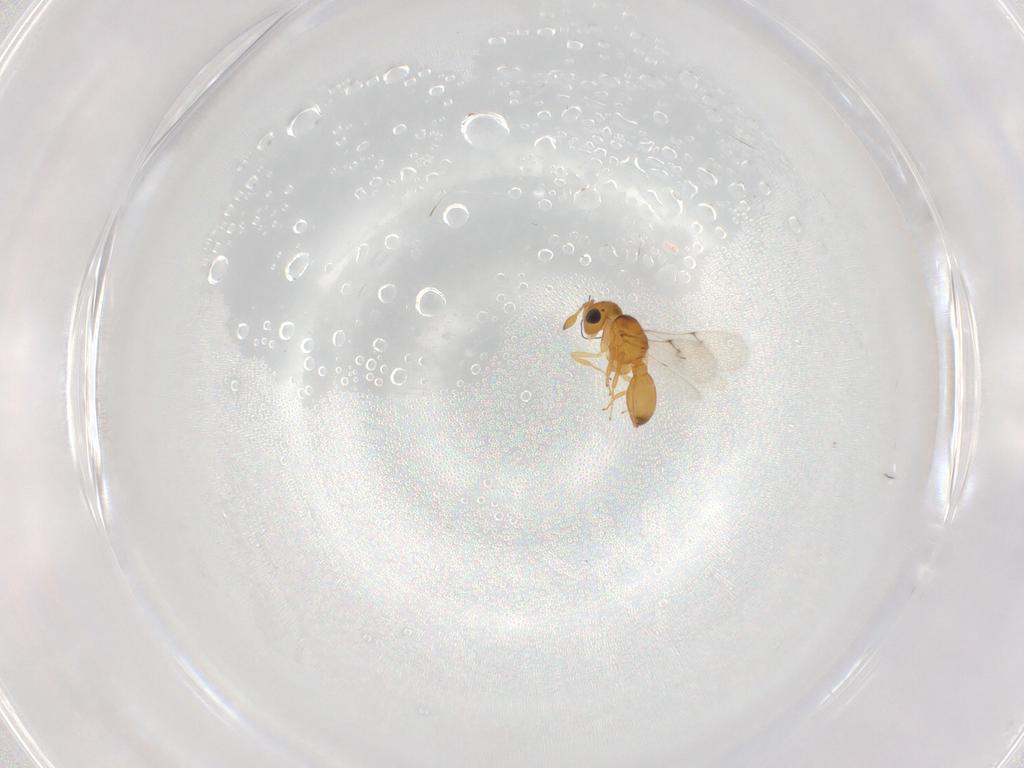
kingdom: Animalia
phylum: Arthropoda
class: Insecta
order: Hymenoptera
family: Scelionidae
